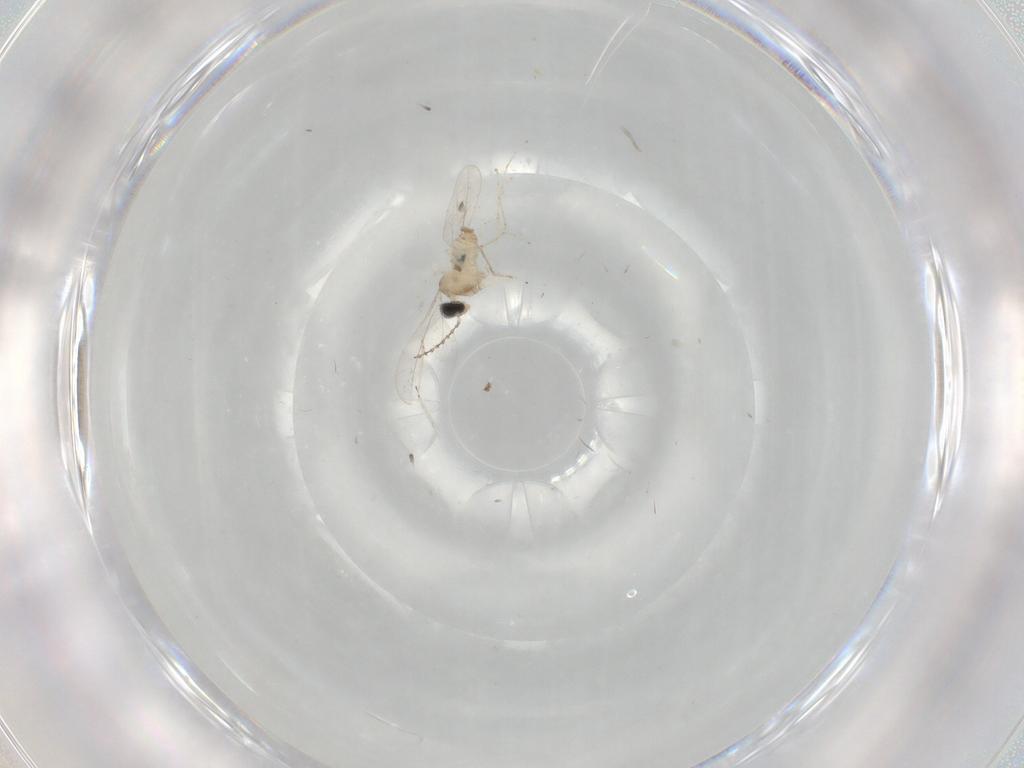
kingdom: Animalia
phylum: Arthropoda
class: Insecta
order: Diptera
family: Cecidomyiidae
